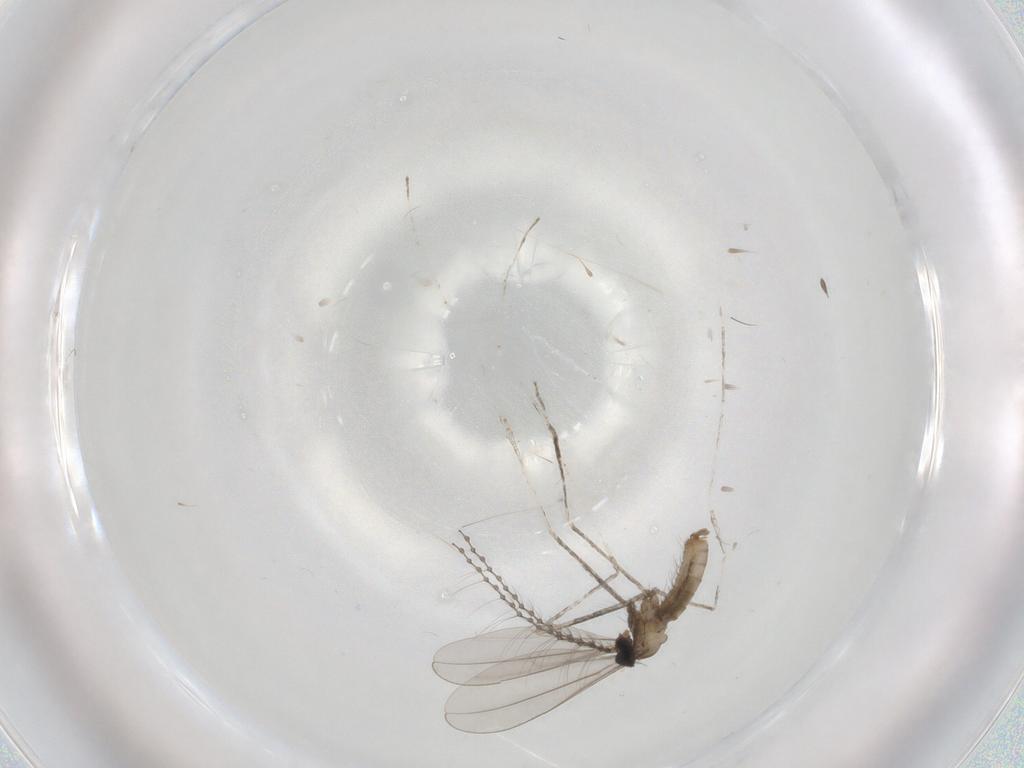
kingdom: Animalia
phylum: Arthropoda
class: Insecta
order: Diptera
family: Cecidomyiidae
